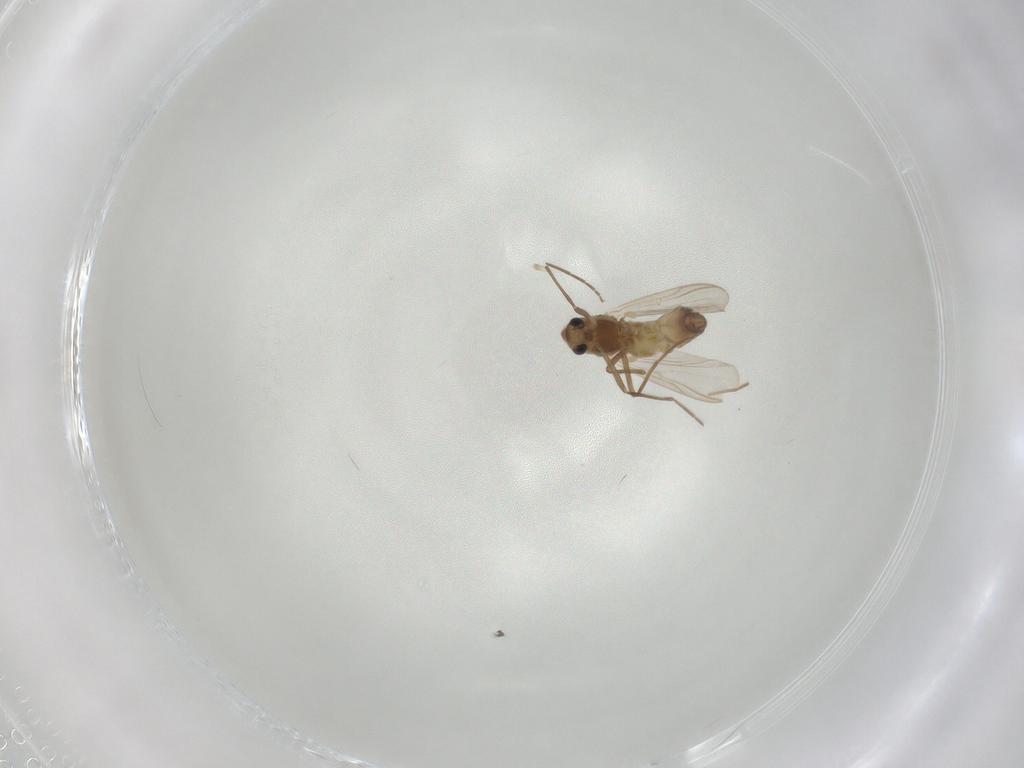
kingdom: Animalia
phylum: Arthropoda
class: Insecta
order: Diptera
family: Chironomidae
